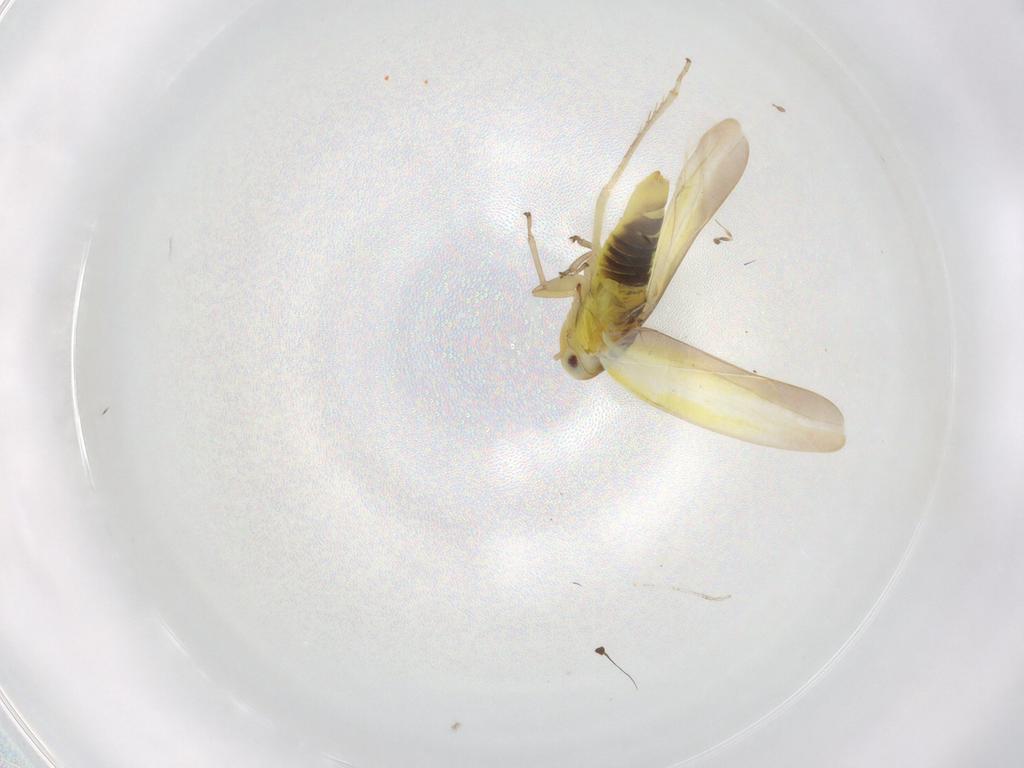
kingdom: Animalia
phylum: Arthropoda
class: Insecta
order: Hemiptera
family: Cicadellidae
